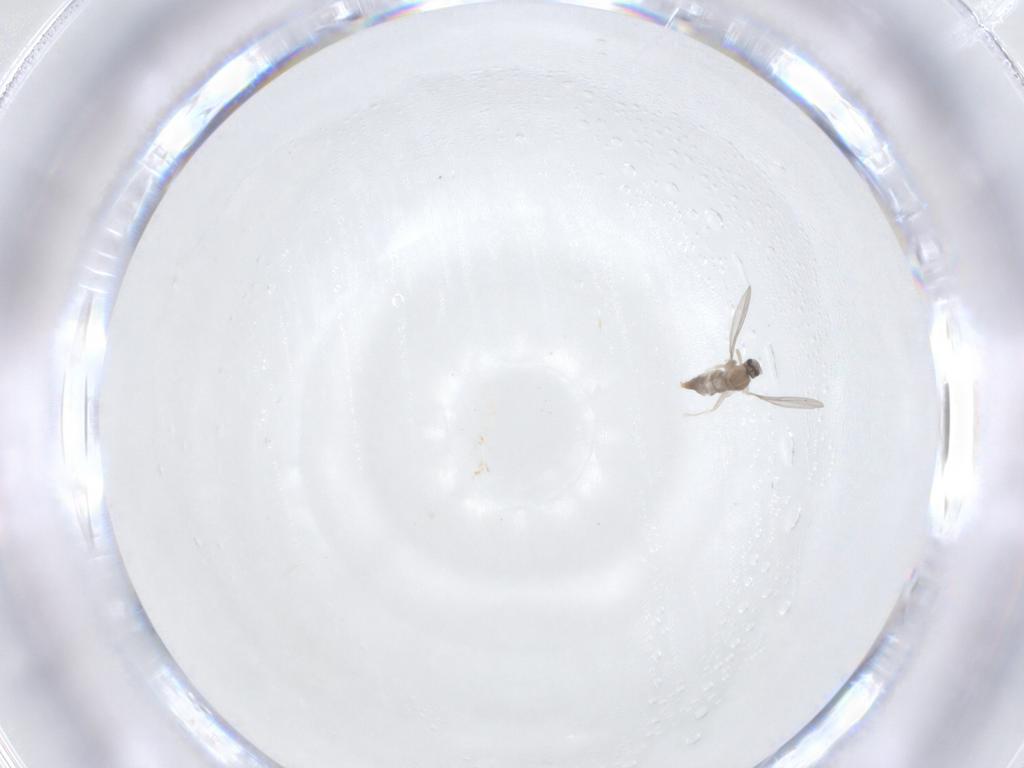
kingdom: Animalia
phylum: Arthropoda
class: Insecta
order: Diptera
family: Cecidomyiidae
